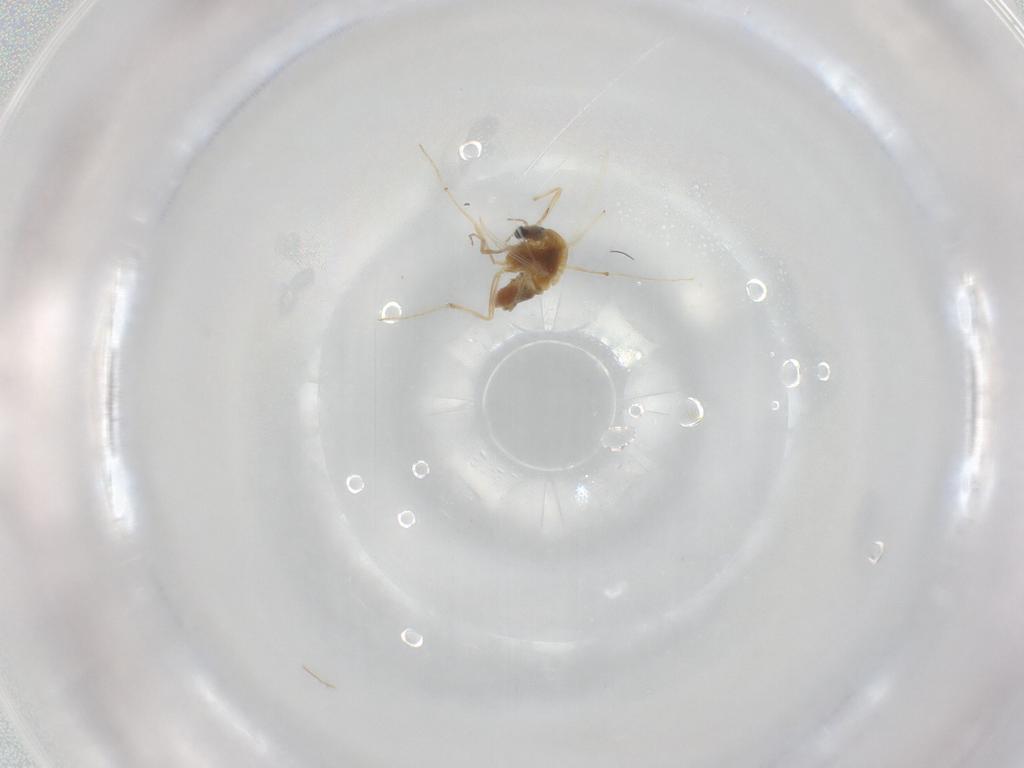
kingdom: Animalia
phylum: Arthropoda
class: Insecta
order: Diptera
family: Chironomidae
